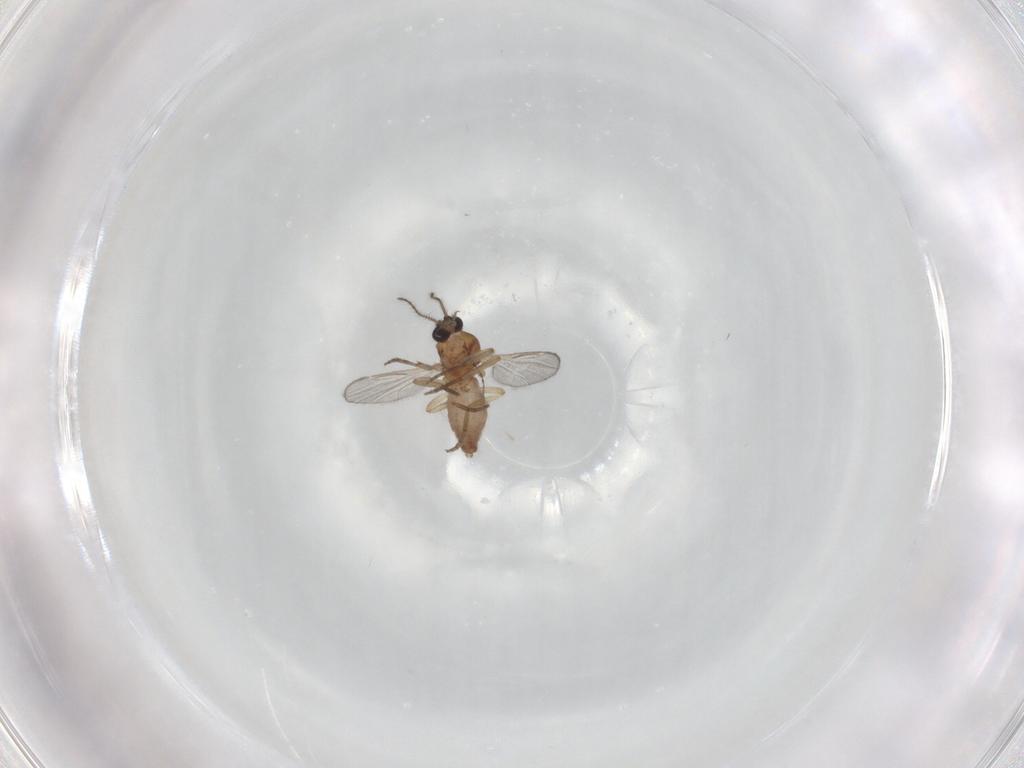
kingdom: Animalia
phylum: Arthropoda
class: Insecta
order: Diptera
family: Ceratopogonidae
